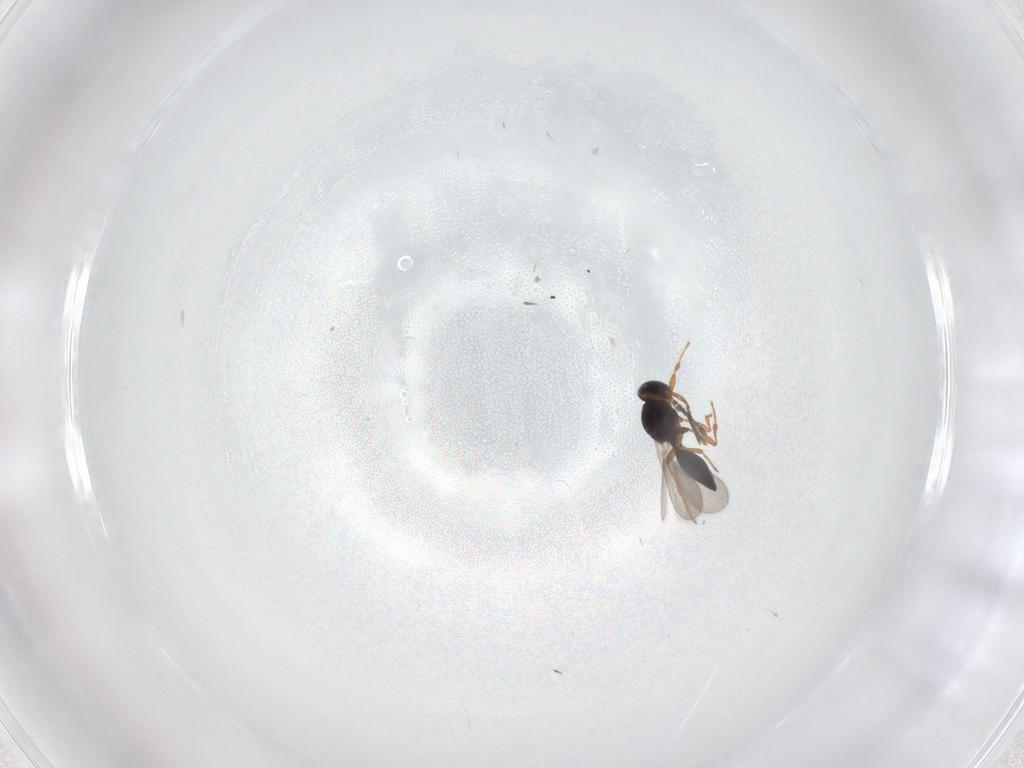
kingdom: Animalia
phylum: Arthropoda
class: Insecta
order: Hymenoptera
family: Platygastridae
